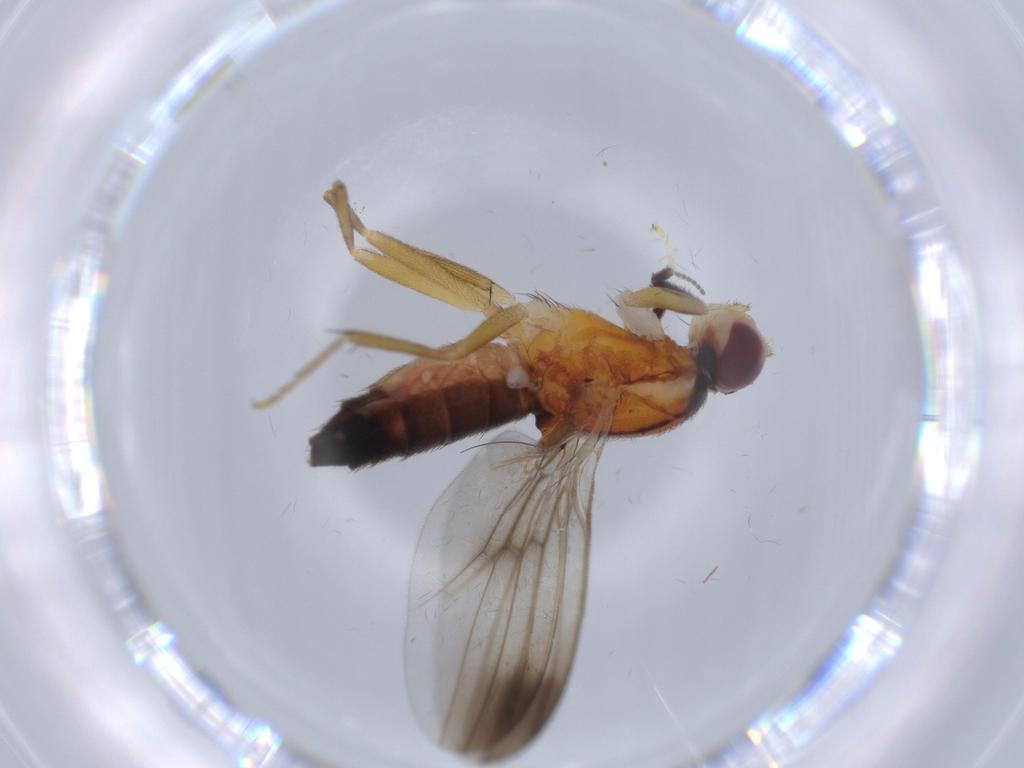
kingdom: Animalia
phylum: Arthropoda
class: Insecta
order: Diptera
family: Clusiidae
